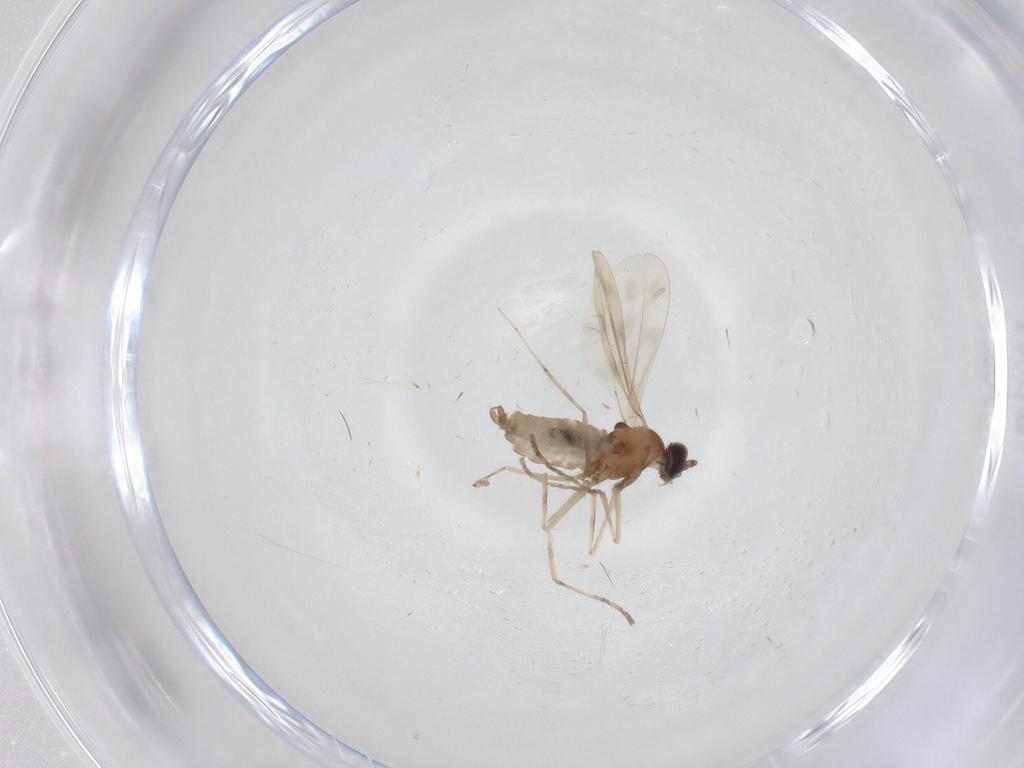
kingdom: Animalia
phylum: Arthropoda
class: Insecta
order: Diptera
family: Cecidomyiidae
